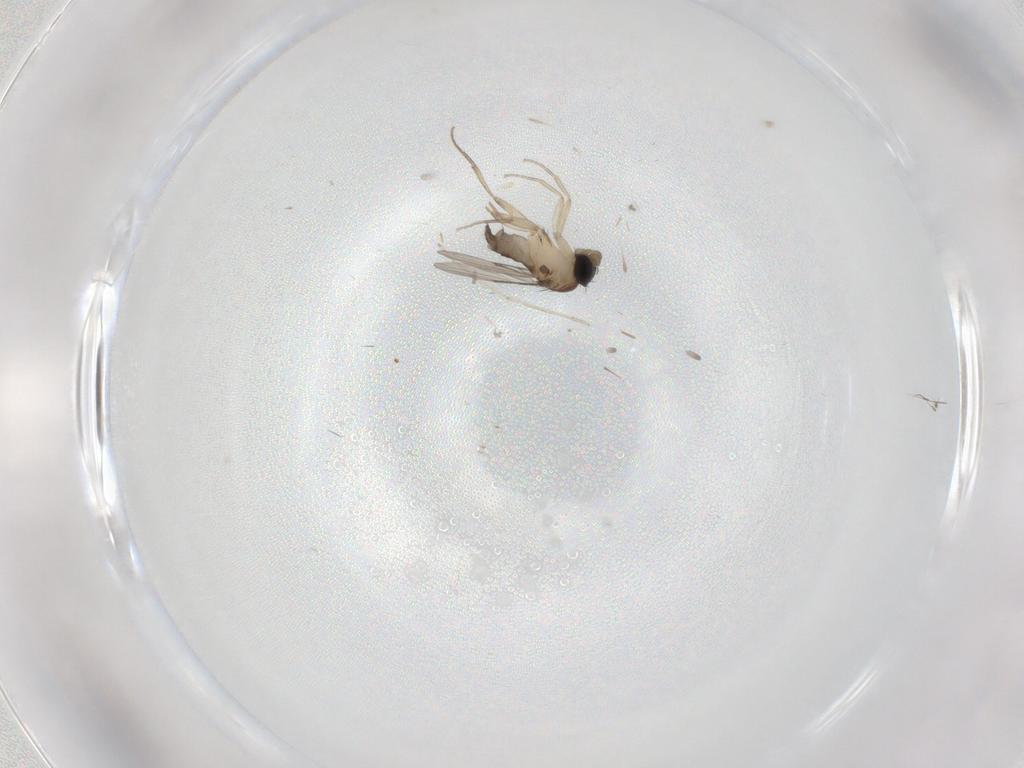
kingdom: Animalia
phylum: Arthropoda
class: Insecta
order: Diptera
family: Cecidomyiidae
